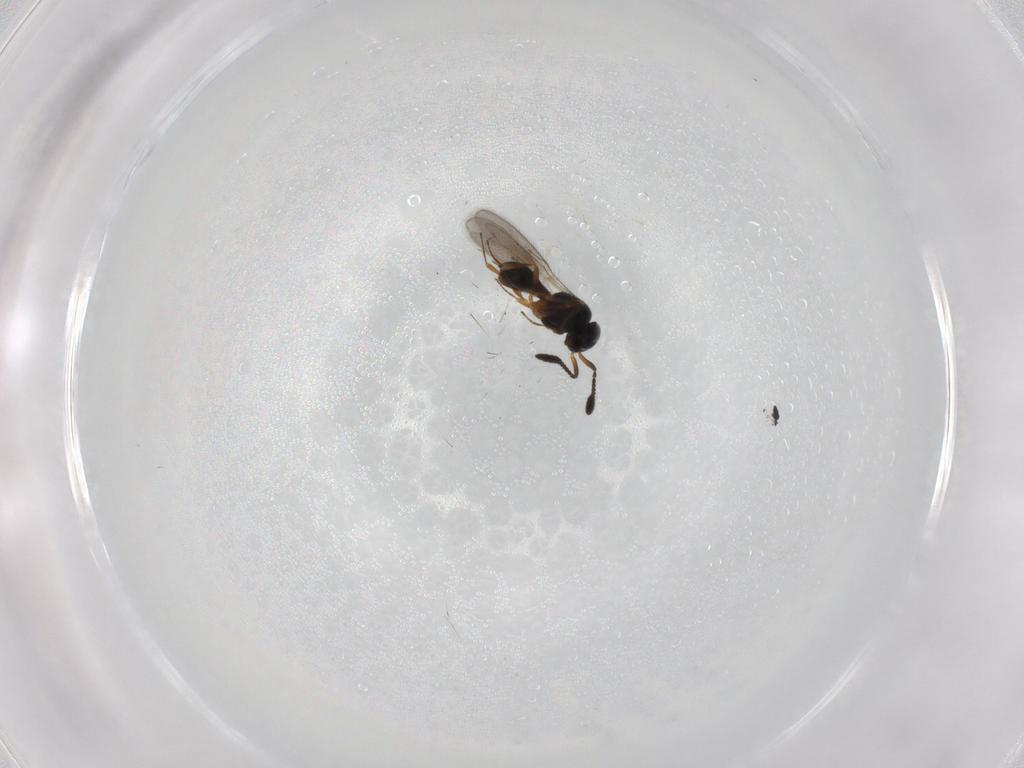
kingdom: Animalia
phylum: Arthropoda
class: Insecta
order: Hymenoptera
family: Scelionidae
